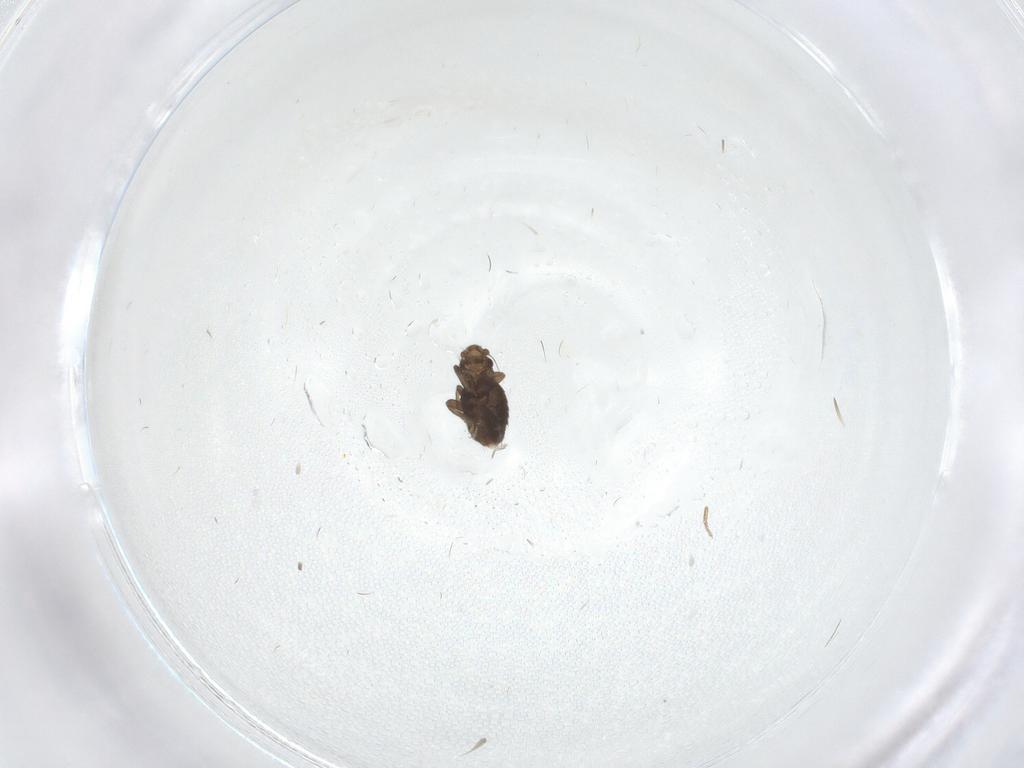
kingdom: Animalia
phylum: Arthropoda
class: Insecta
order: Diptera
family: Phoridae
